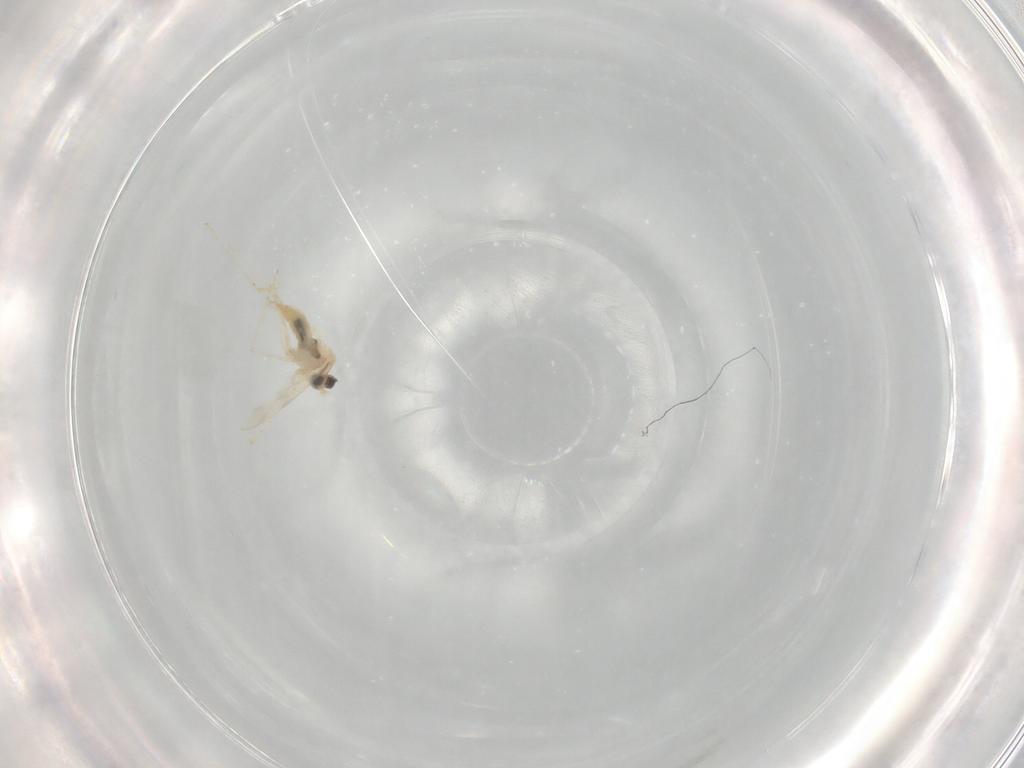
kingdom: Animalia
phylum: Arthropoda
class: Insecta
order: Diptera
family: Cecidomyiidae
